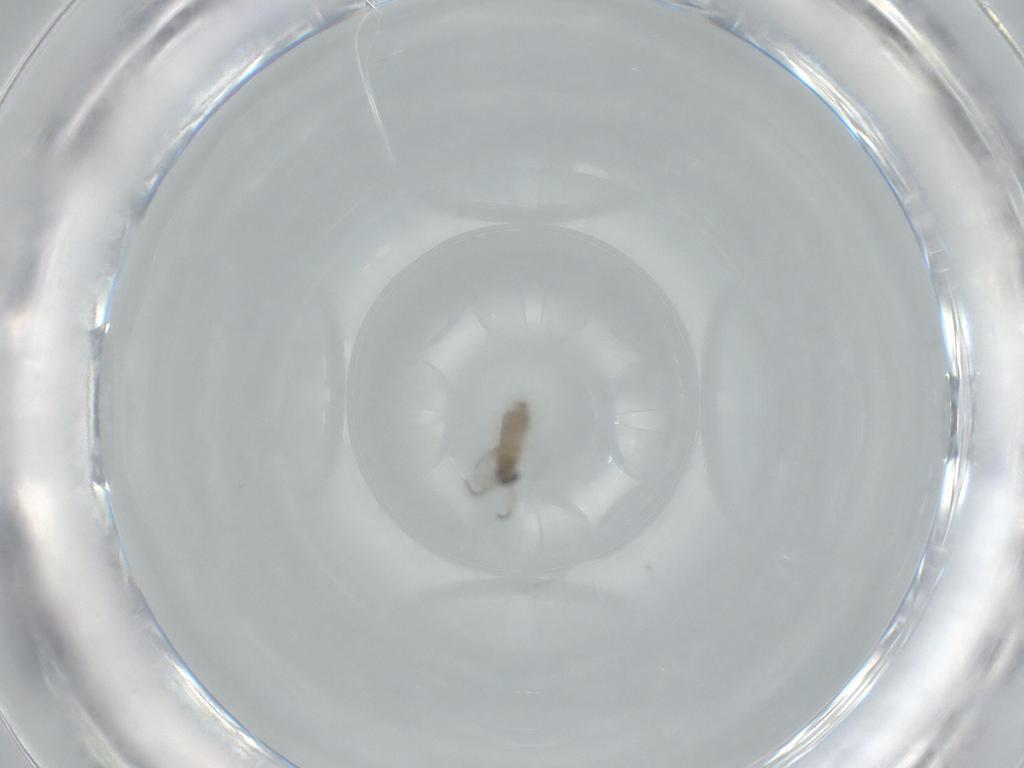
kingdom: Animalia
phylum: Arthropoda
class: Insecta
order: Diptera
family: Cecidomyiidae
